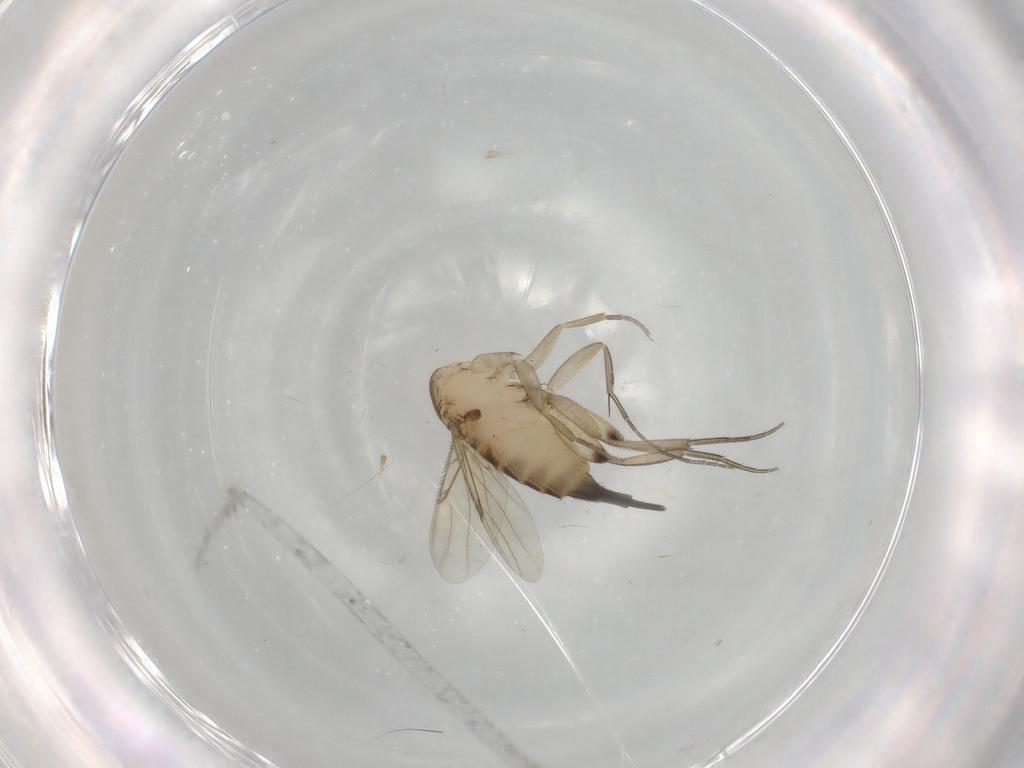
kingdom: Animalia
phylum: Arthropoda
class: Insecta
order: Diptera
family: Phoridae
